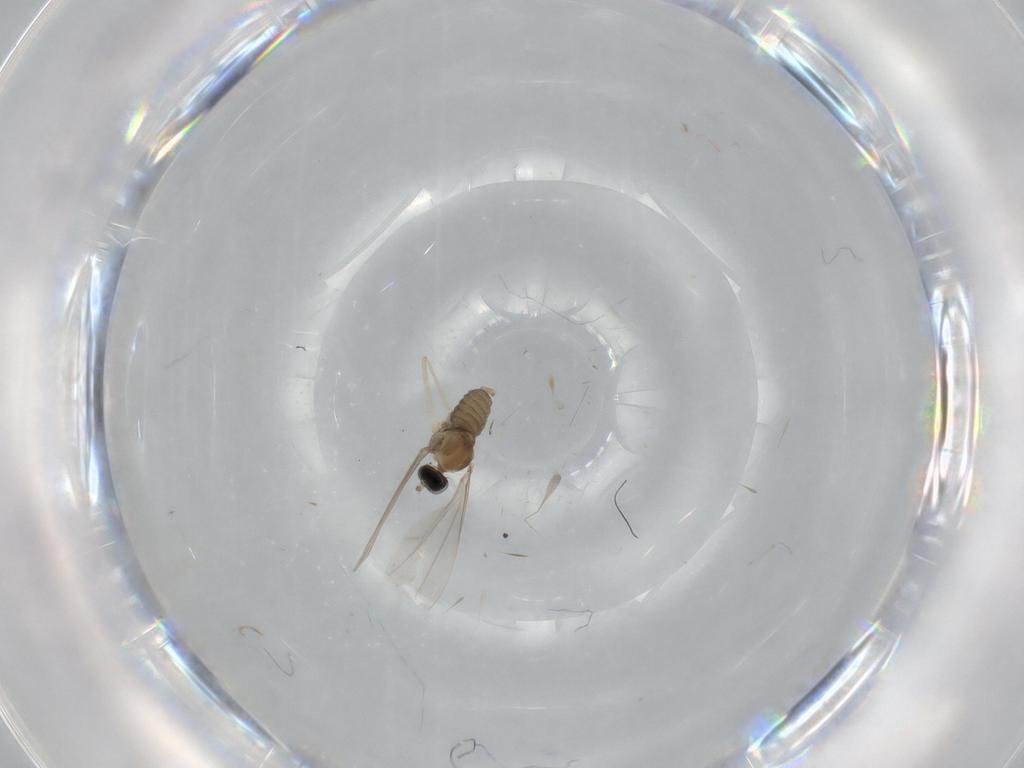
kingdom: Animalia
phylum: Arthropoda
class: Insecta
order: Diptera
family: Cecidomyiidae
